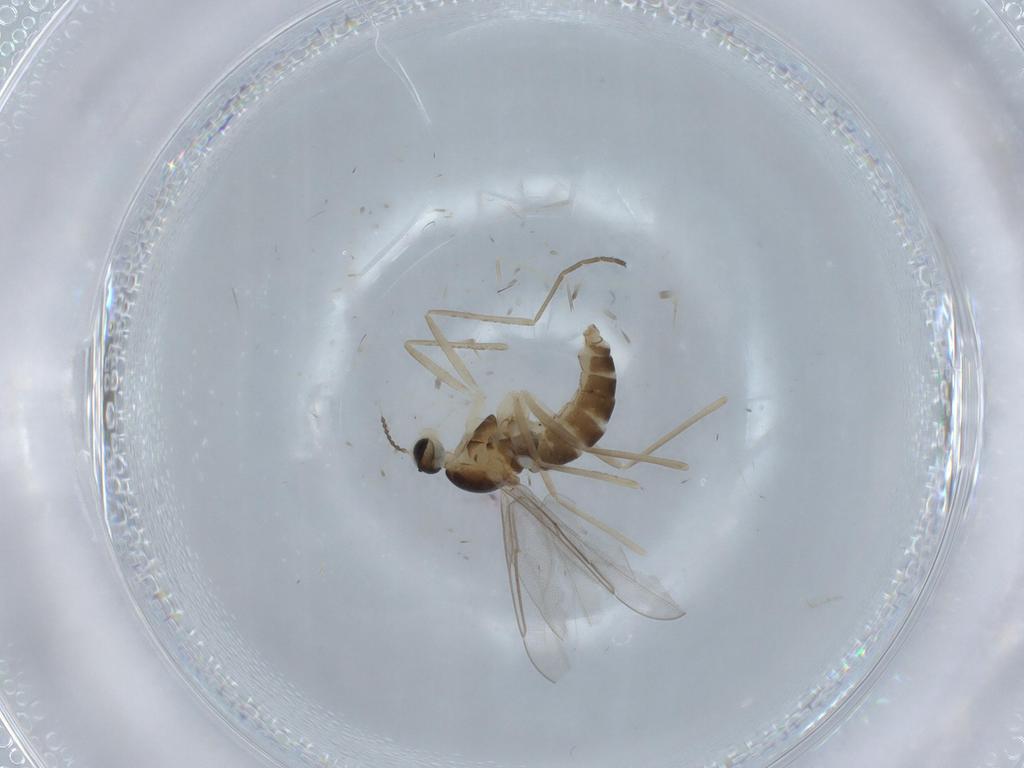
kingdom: Animalia
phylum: Arthropoda
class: Insecta
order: Diptera
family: Cecidomyiidae
